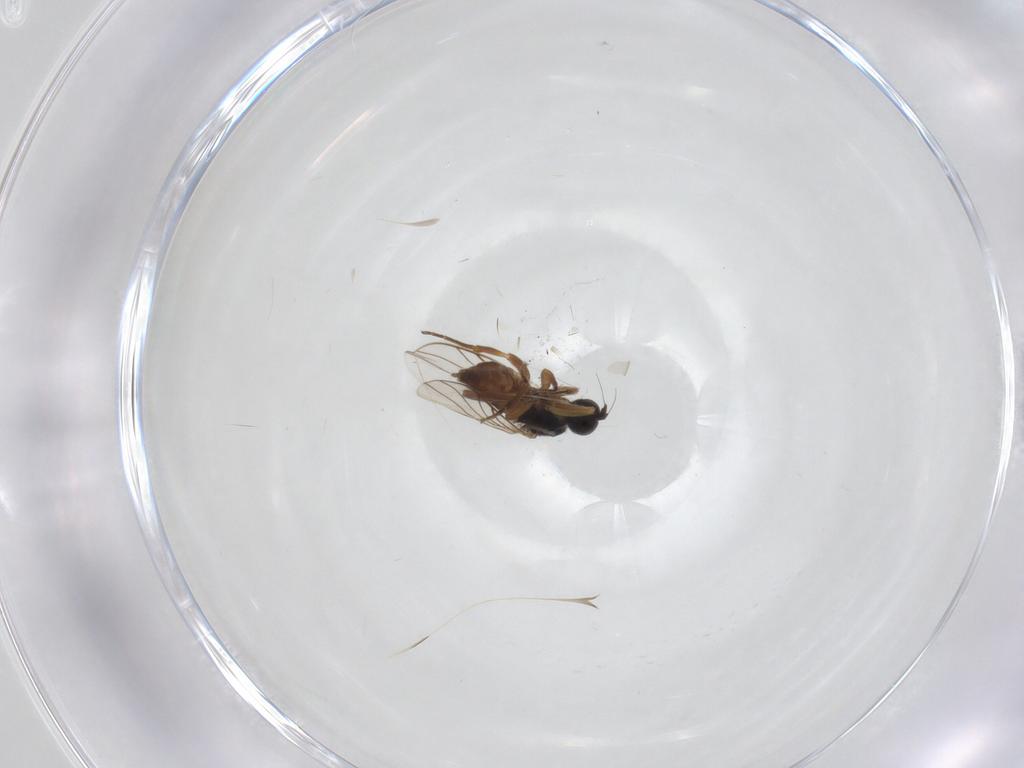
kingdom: Animalia
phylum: Arthropoda
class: Insecta
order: Diptera
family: Hybotidae
